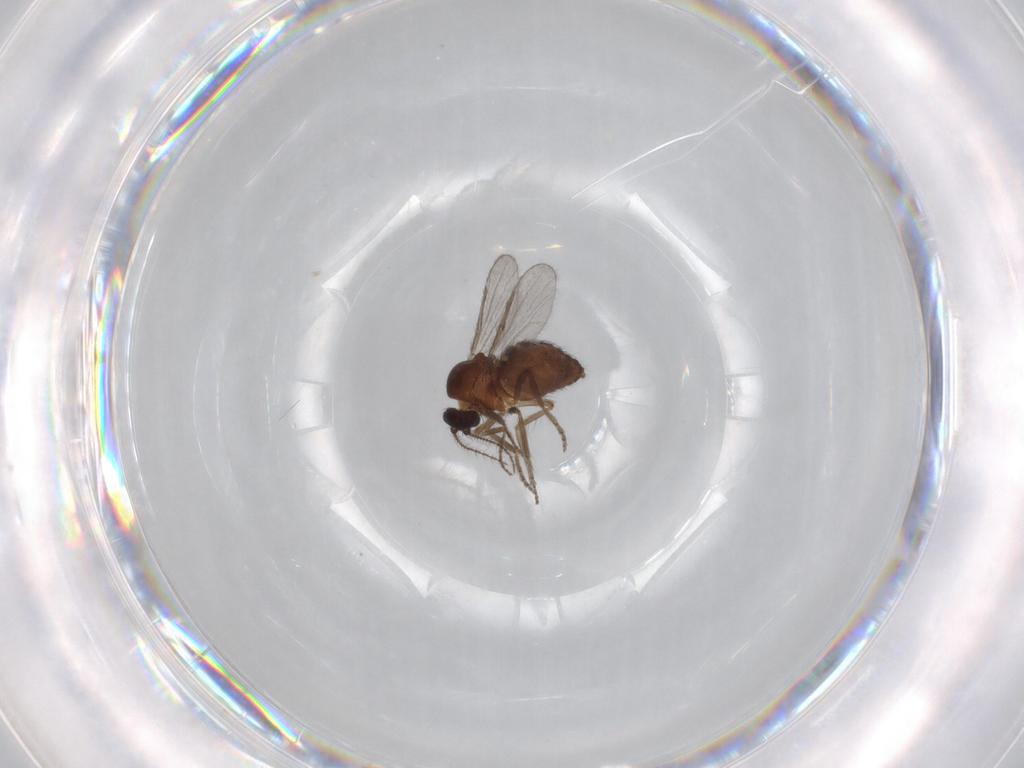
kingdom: Animalia
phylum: Arthropoda
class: Insecta
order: Diptera
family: Ceratopogonidae
